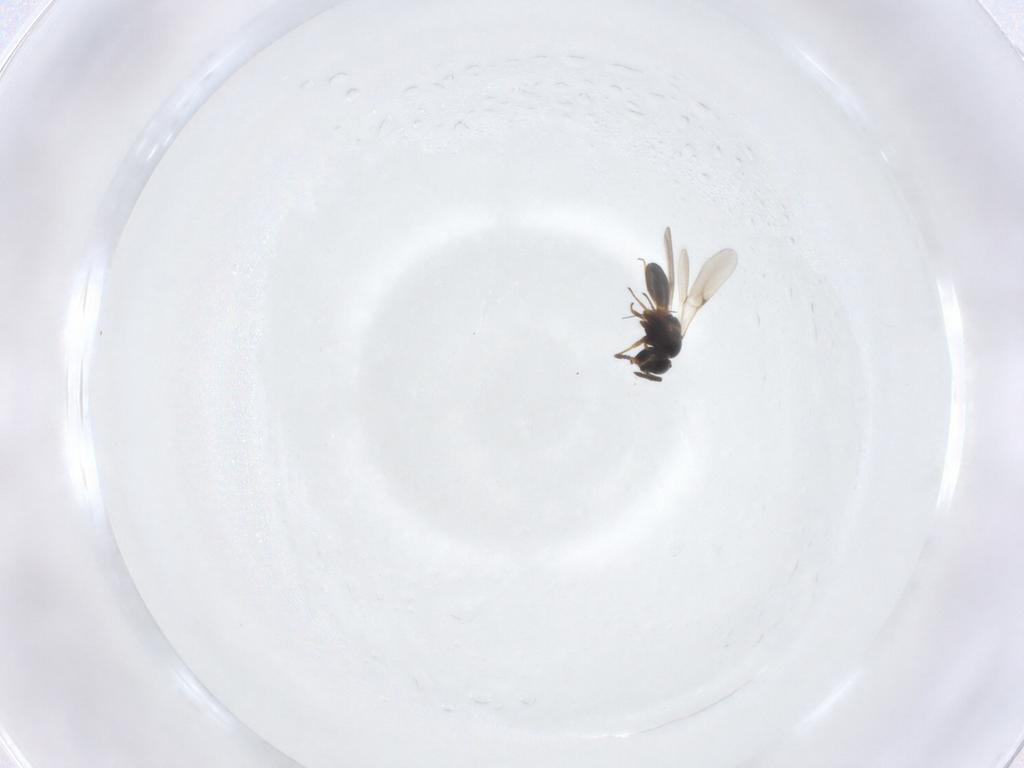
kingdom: Animalia
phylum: Arthropoda
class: Insecta
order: Hymenoptera
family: Scelionidae
